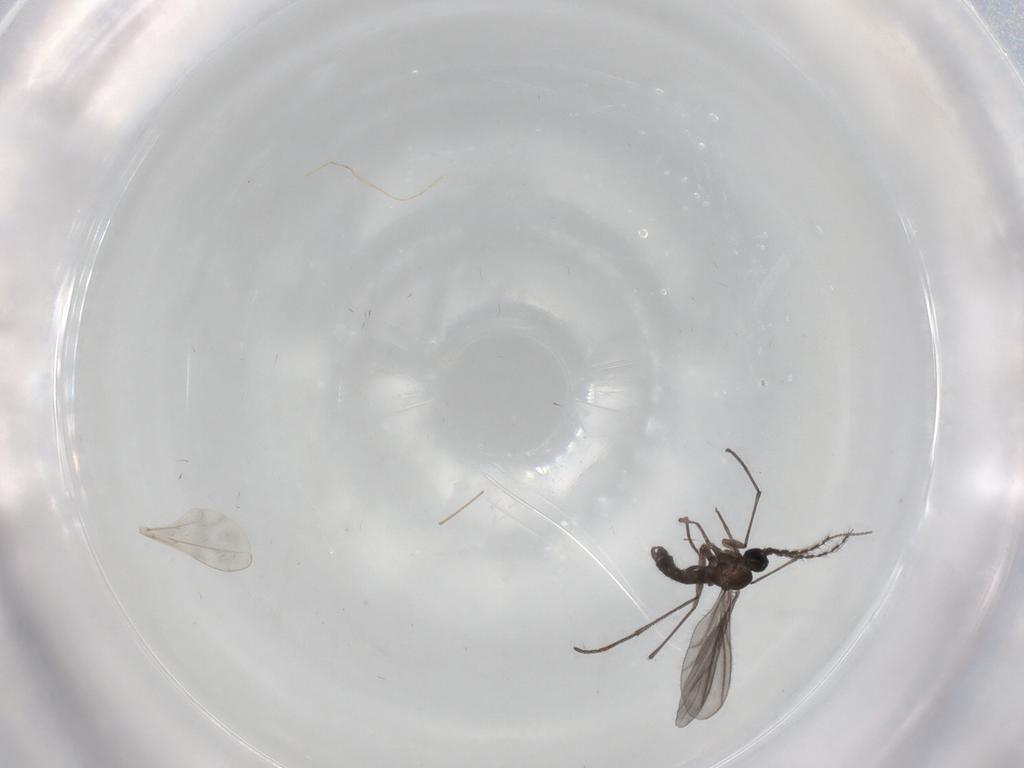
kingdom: Animalia
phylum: Arthropoda
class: Insecta
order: Diptera
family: Sciaridae
